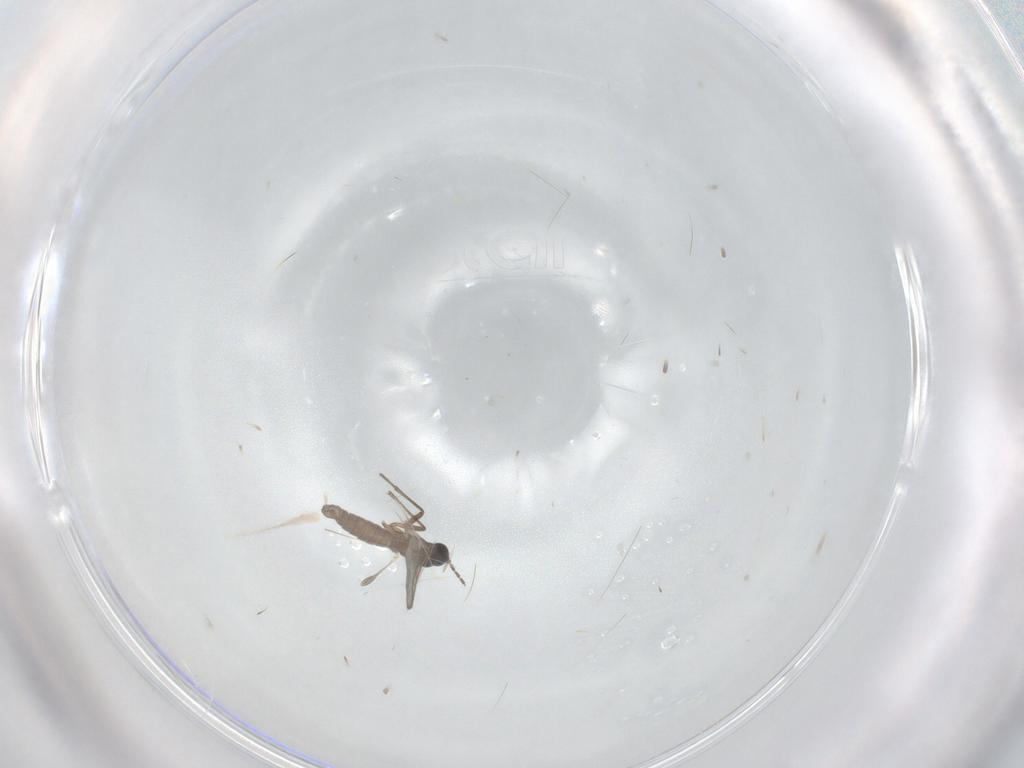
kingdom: Animalia
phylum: Arthropoda
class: Insecta
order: Diptera
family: Sciaridae
